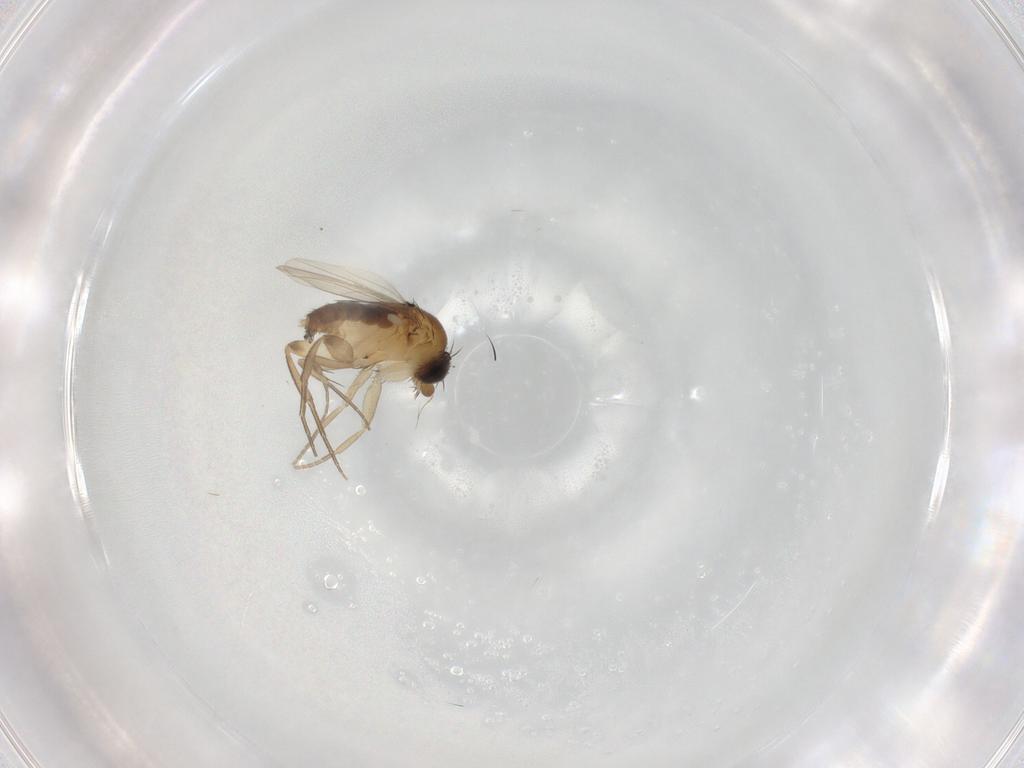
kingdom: Animalia
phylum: Arthropoda
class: Insecta
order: Diptera
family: Phoridae
